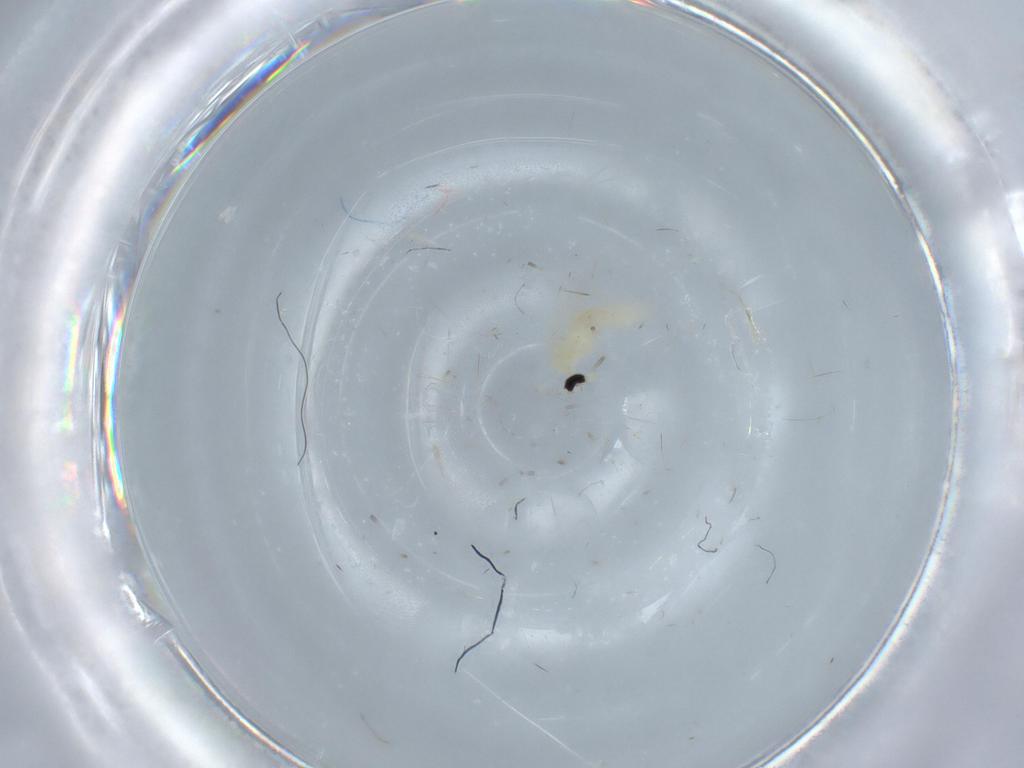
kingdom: Animalia
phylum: Arthropoda
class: Insecta
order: Diptera
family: Cecidomyiidae
